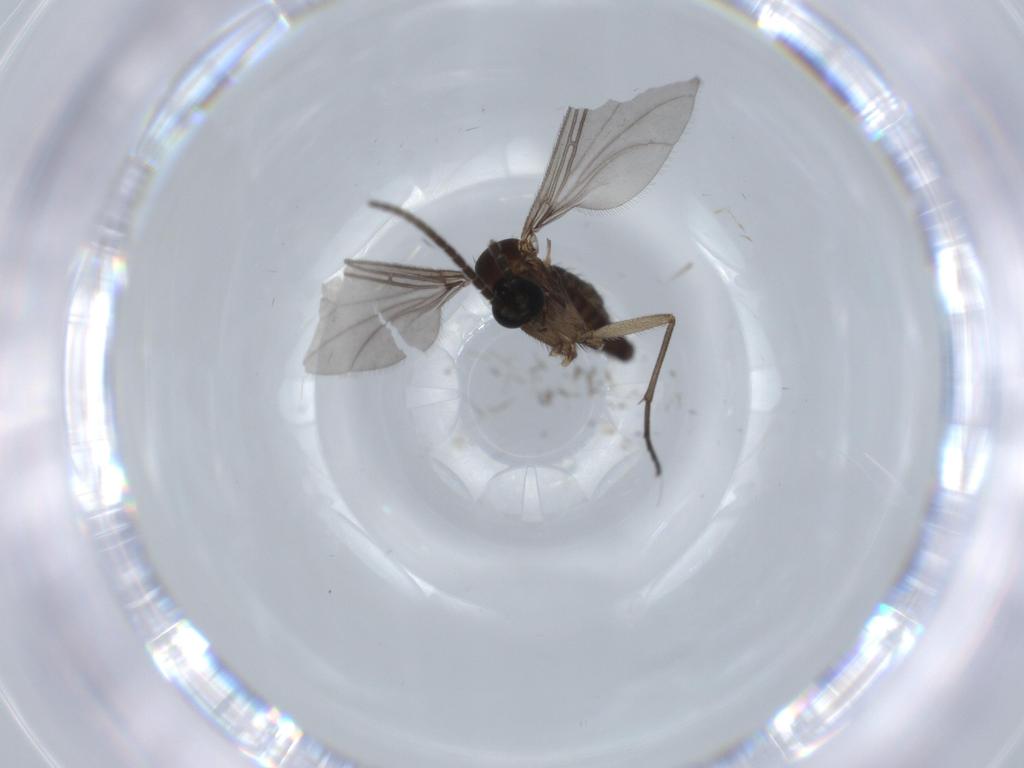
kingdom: Animalia
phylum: Arthropoda
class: Insecta
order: Diptera
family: Sciaridae
